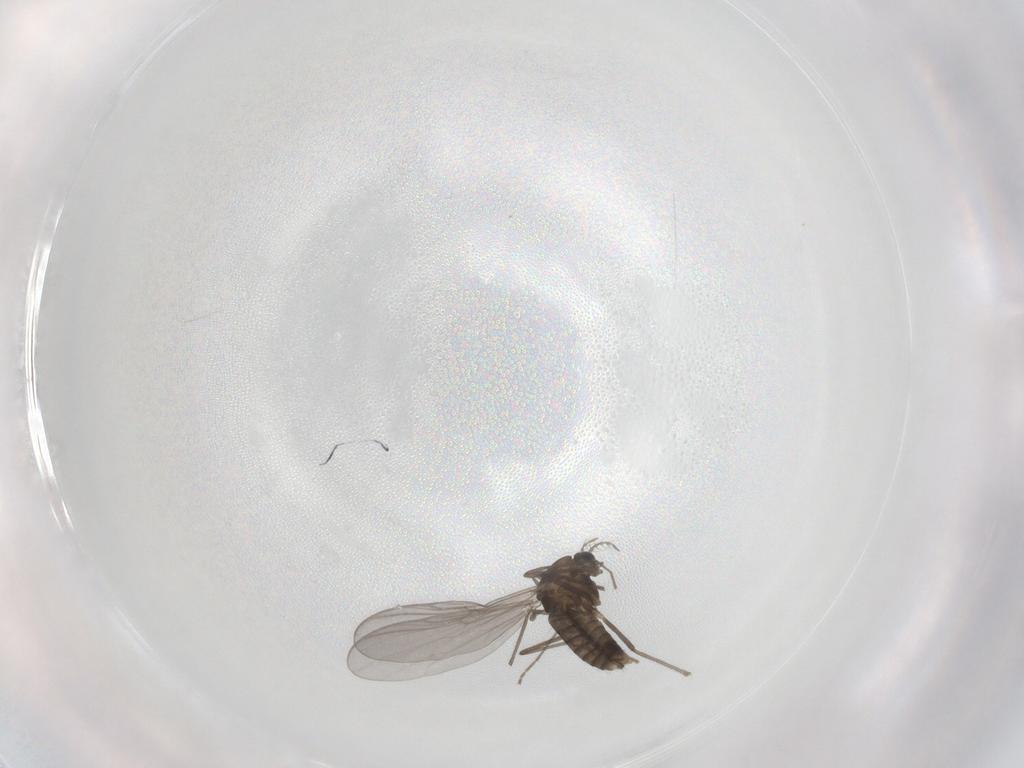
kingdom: Animalia
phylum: Arthropoda
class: Insecta
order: Diptera
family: Chironomidae
